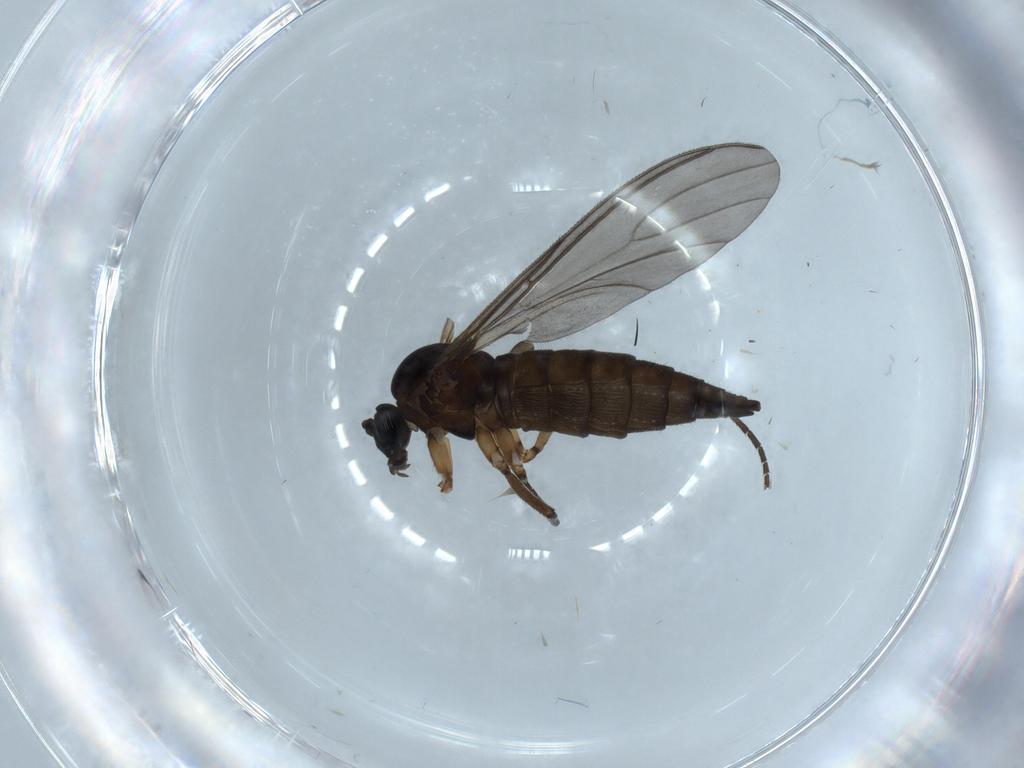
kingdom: Animalia
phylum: Arthropoda
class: Insecta
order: Diptera
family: Sciaridae
